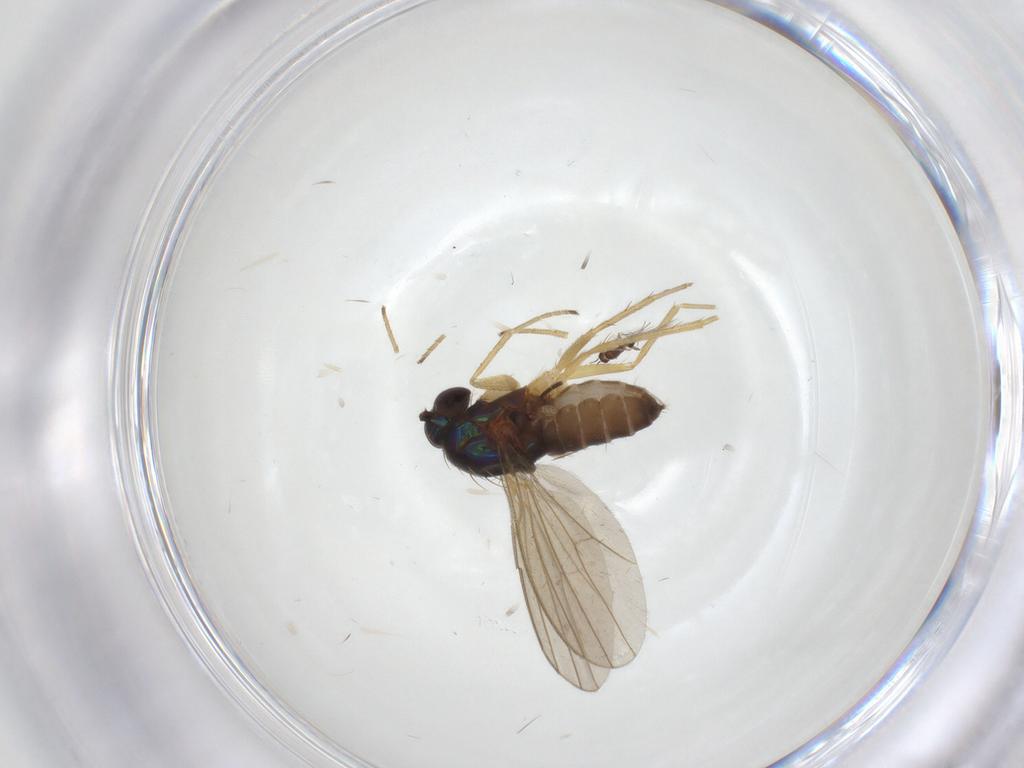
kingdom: Animalia
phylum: Arthropoda
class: Insecta
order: Diptera
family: Dolichopodidae
